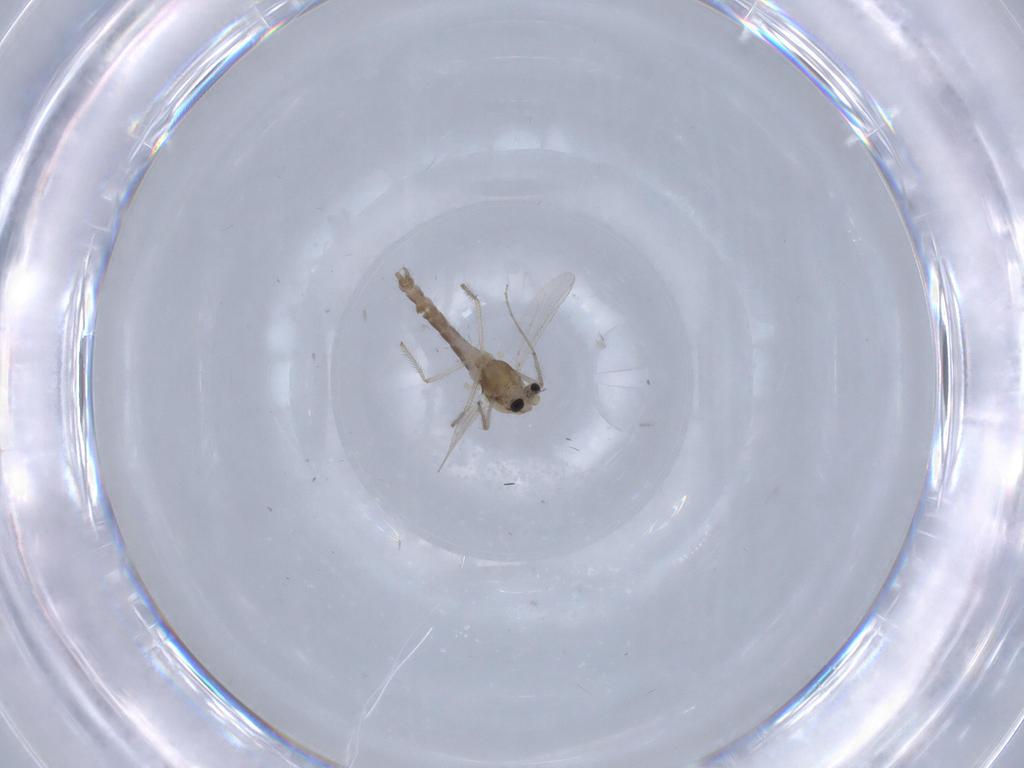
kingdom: Animalia
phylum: Arthropoda
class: Insecta
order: Diptera
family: Chironomidae
